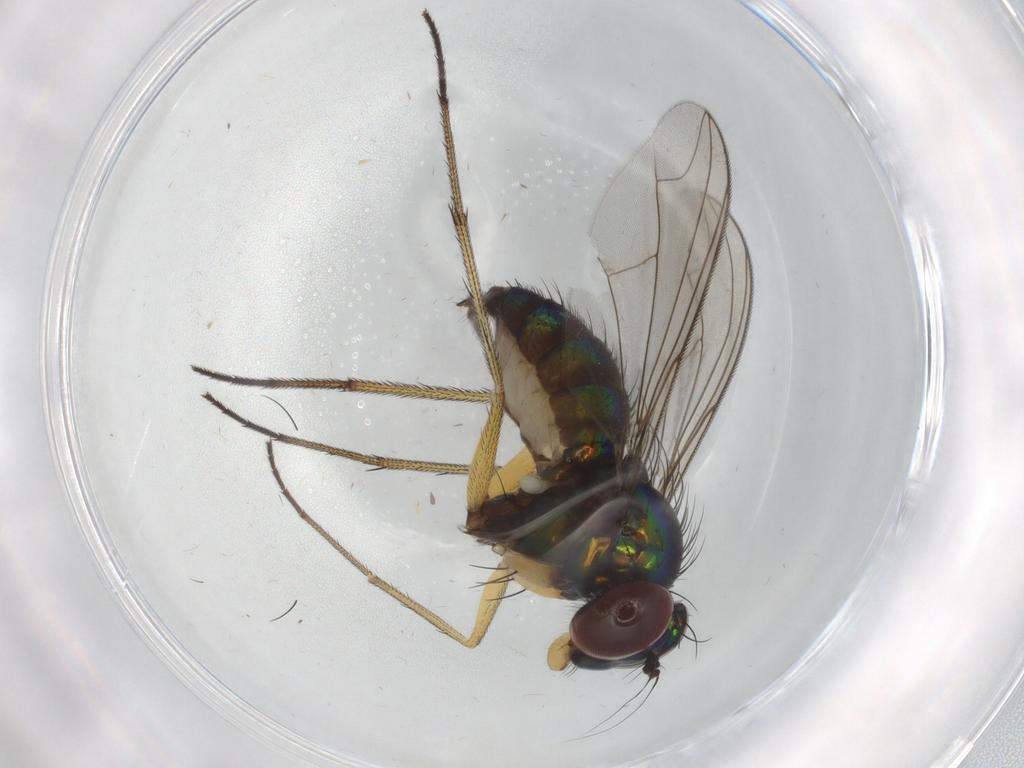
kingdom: Animalia
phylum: Arthropoda
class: Insecta
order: Diptera
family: Dolichopodidae
